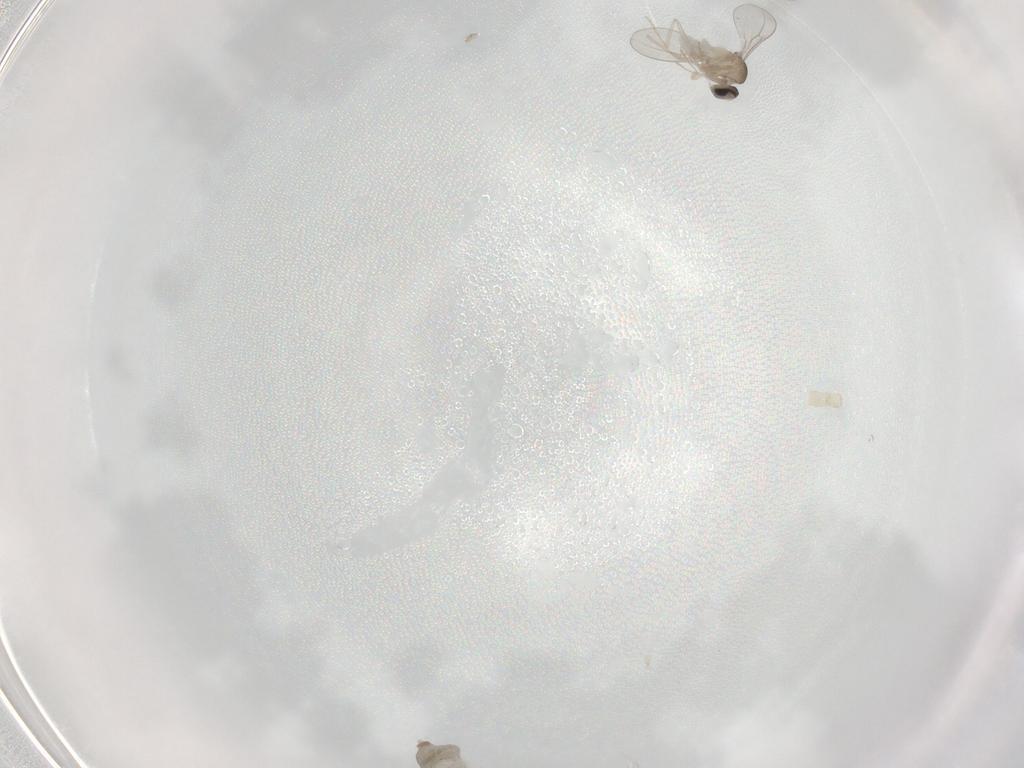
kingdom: Animalia
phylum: Arthropoda
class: Insecta
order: Diptera
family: Cecidomyiidae
